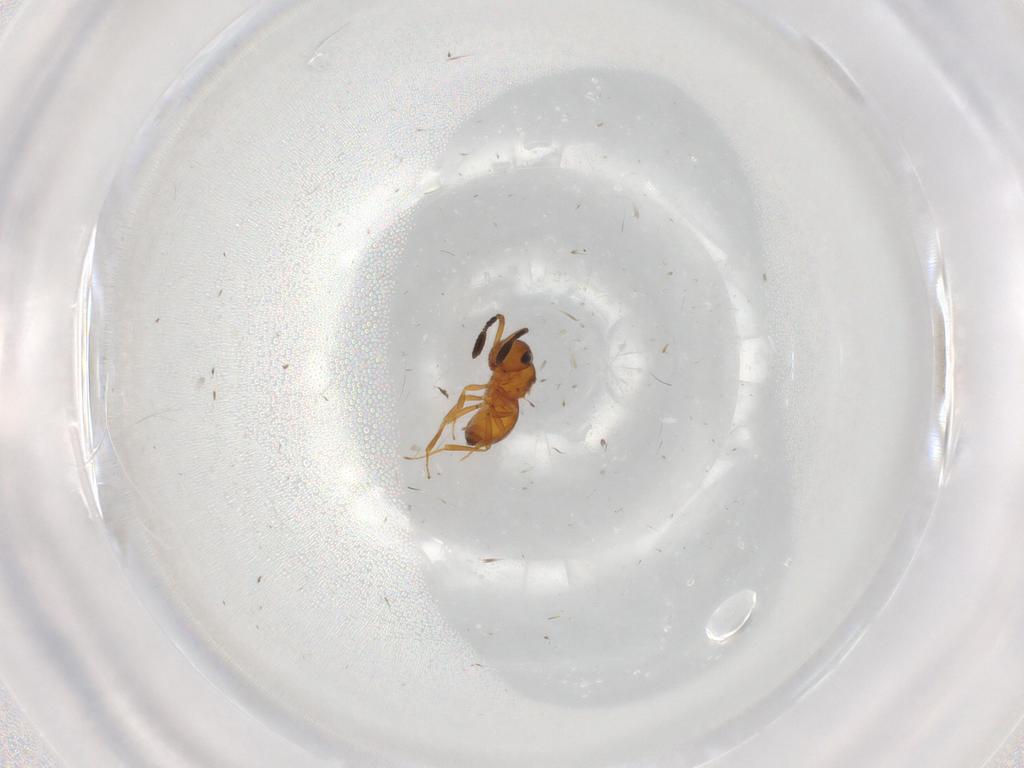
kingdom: Animalia
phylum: Arthropoda
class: Insecta
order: Hymenoptera
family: Scelionidae
